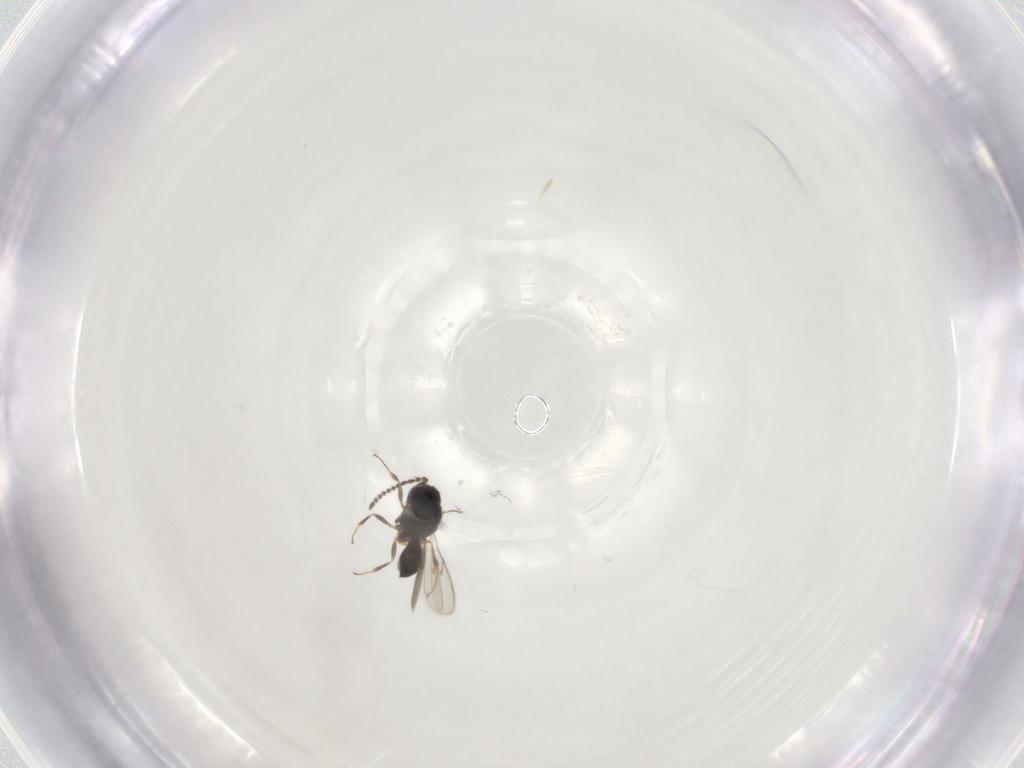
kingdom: Animalia
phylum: Arthropoda
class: Insecta
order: Hymenoptera
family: Scelionidae
